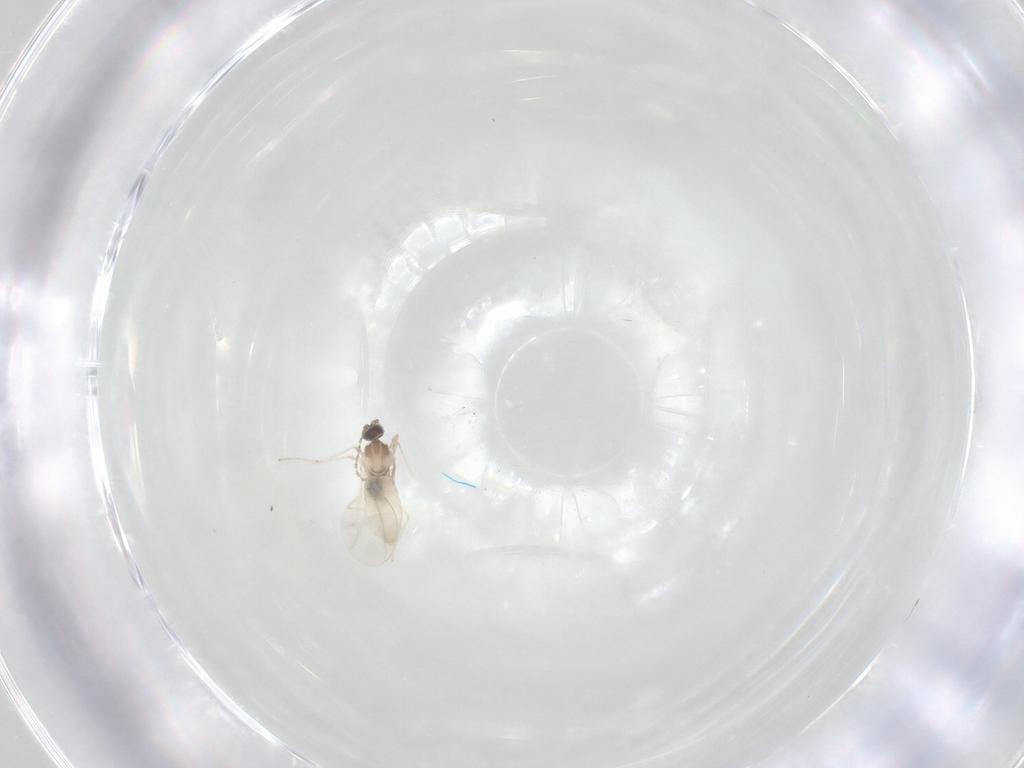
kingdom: Animalia
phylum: Arthropoda
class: Insecta
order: Diptera
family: Cecidomyiidae
